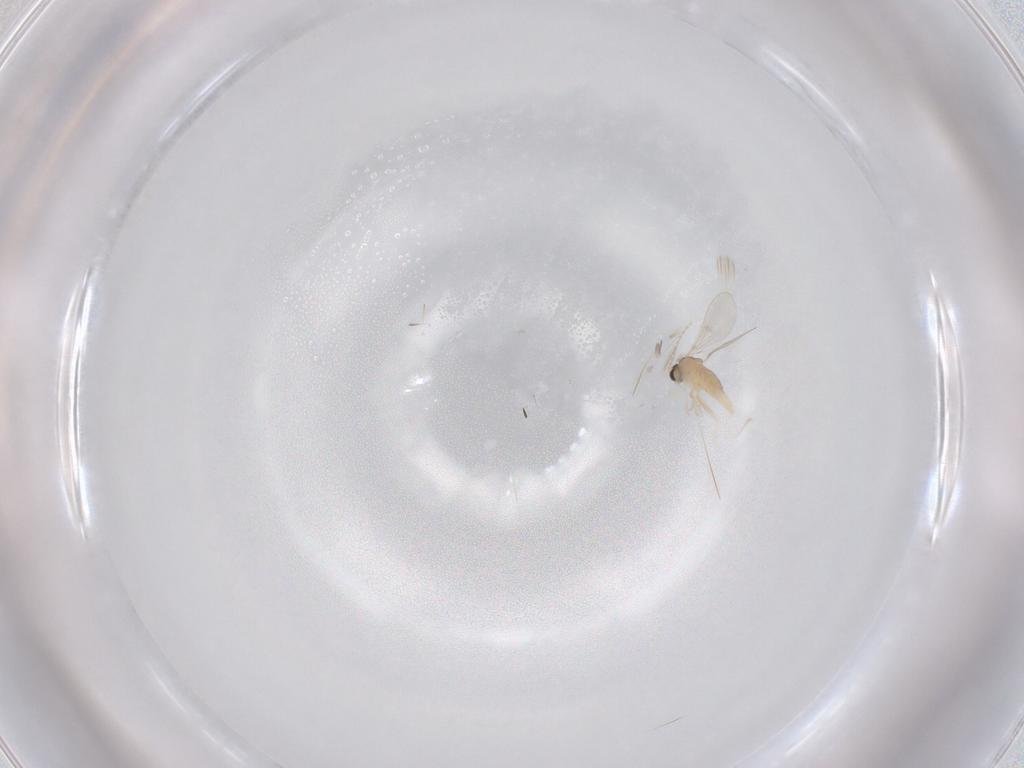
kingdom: Animalia
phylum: Arthropoda
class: Insecta
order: Diptera
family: Cecidomyiidae
